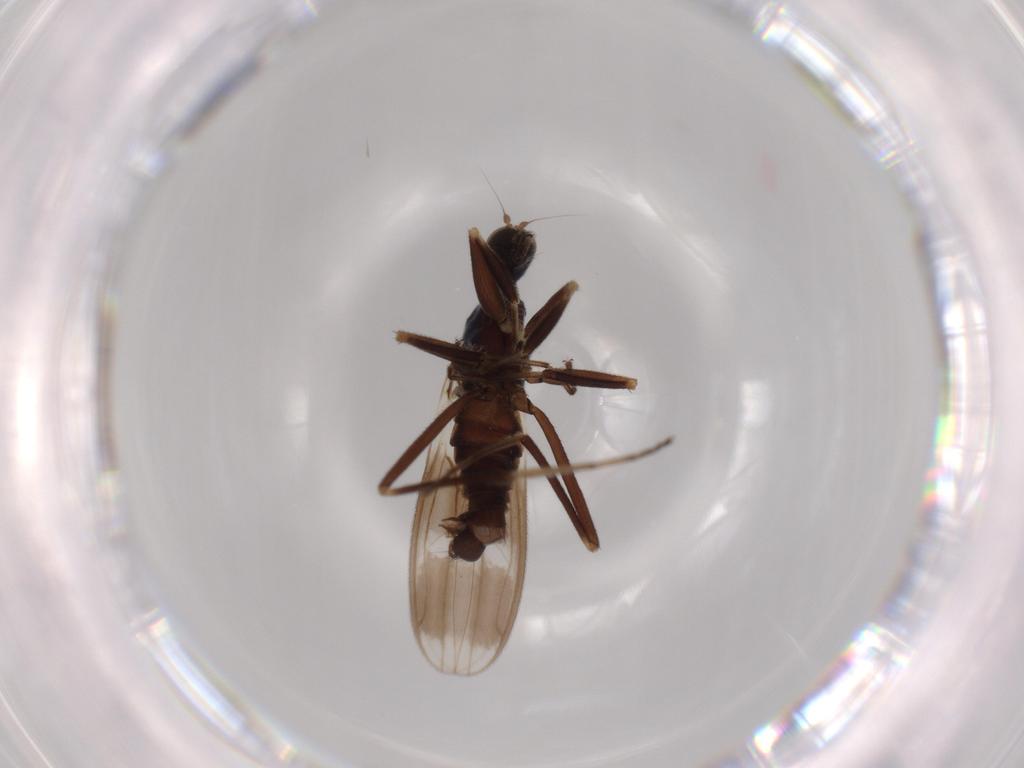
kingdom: Animalia
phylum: Arthropoda
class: Insecta
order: Diptera
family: Hybotidae
